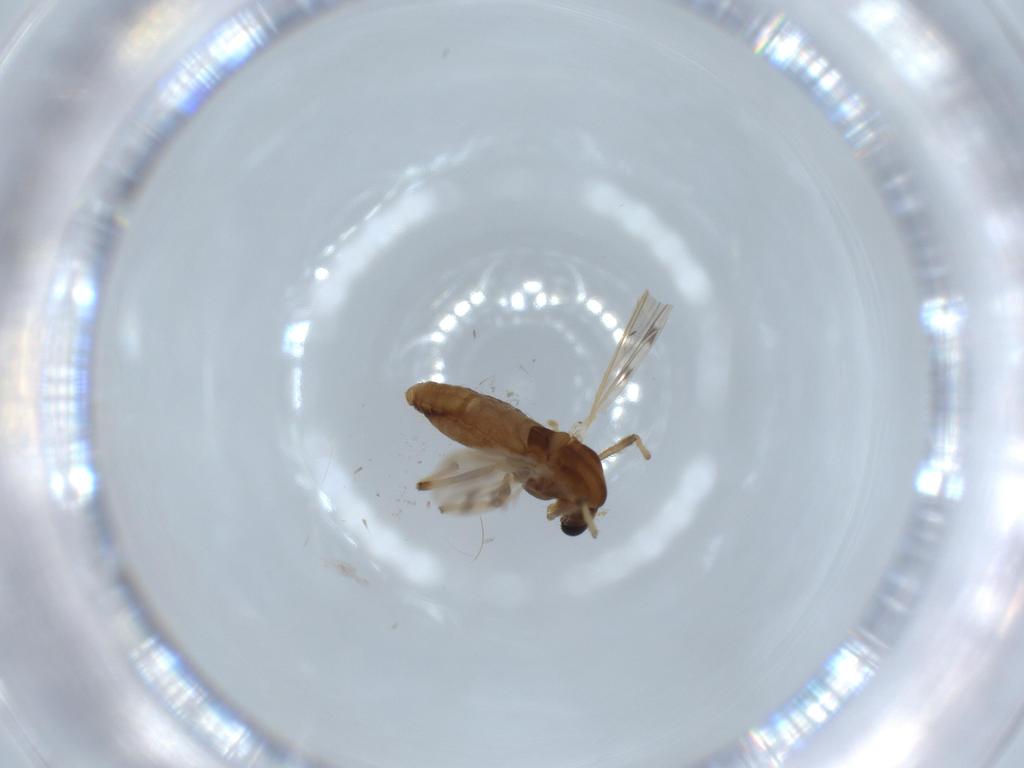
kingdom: Animalia
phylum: Arthropoda
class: Insecta
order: Diptera
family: Chironomidae
